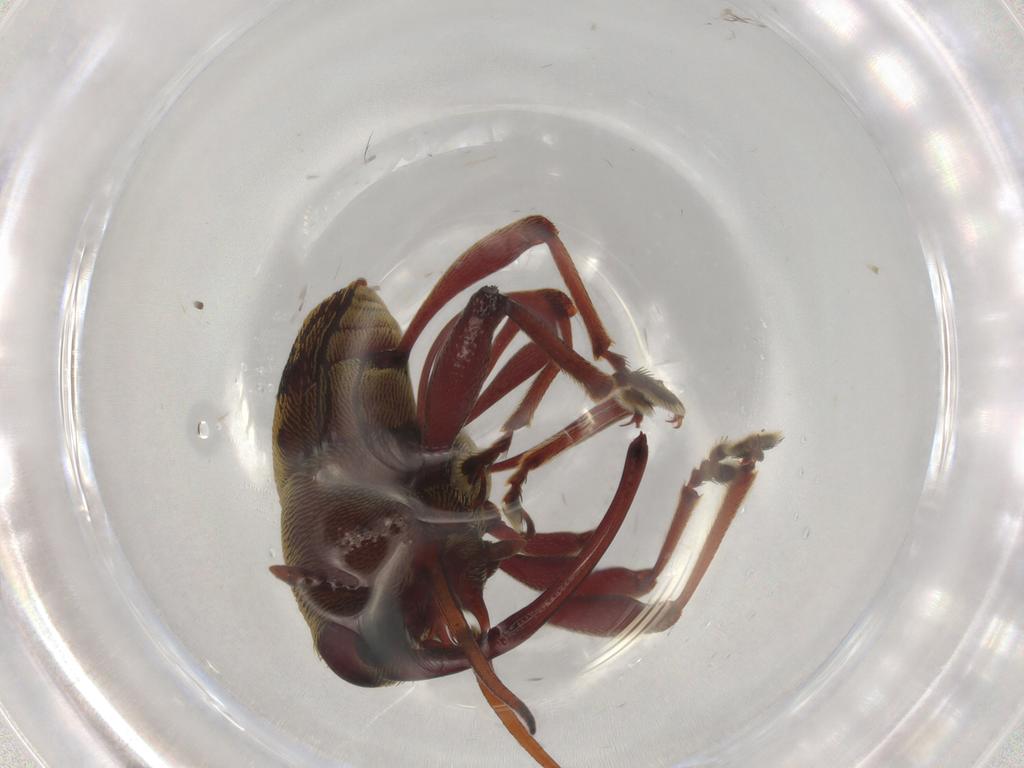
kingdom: Animalia
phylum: Arthropoda
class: Insecta
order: Coleoptera
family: Curculionidae
